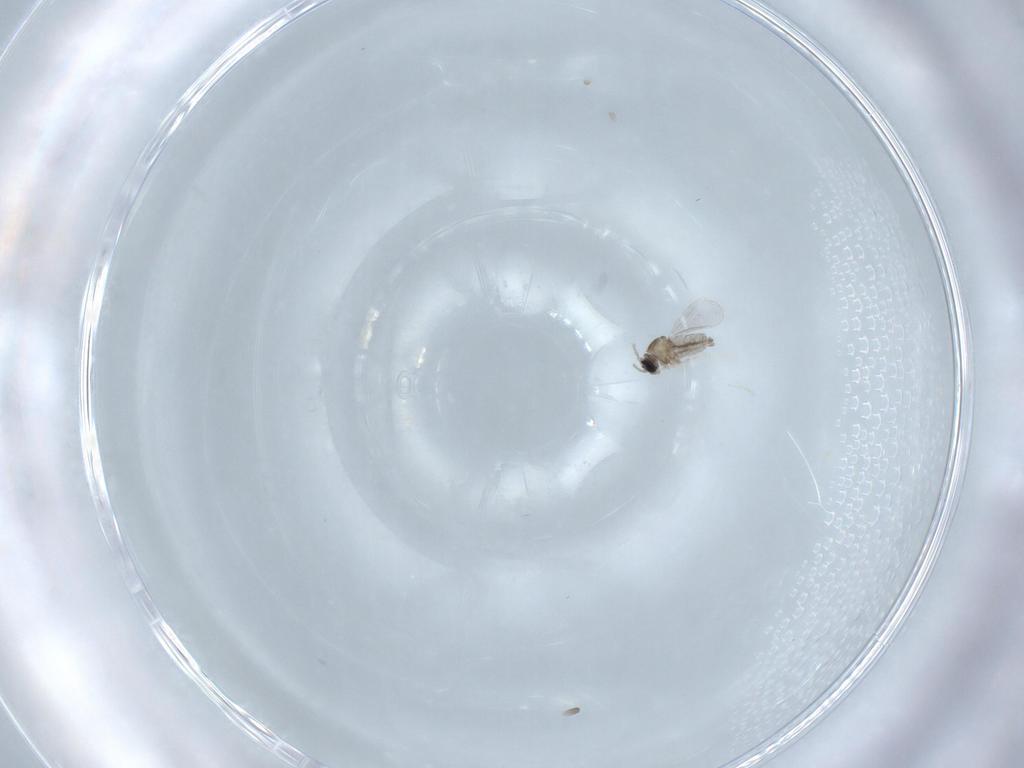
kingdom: Animalia
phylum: Arthropoda
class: Insecta
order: Diptera
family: Cecidomyiidae
